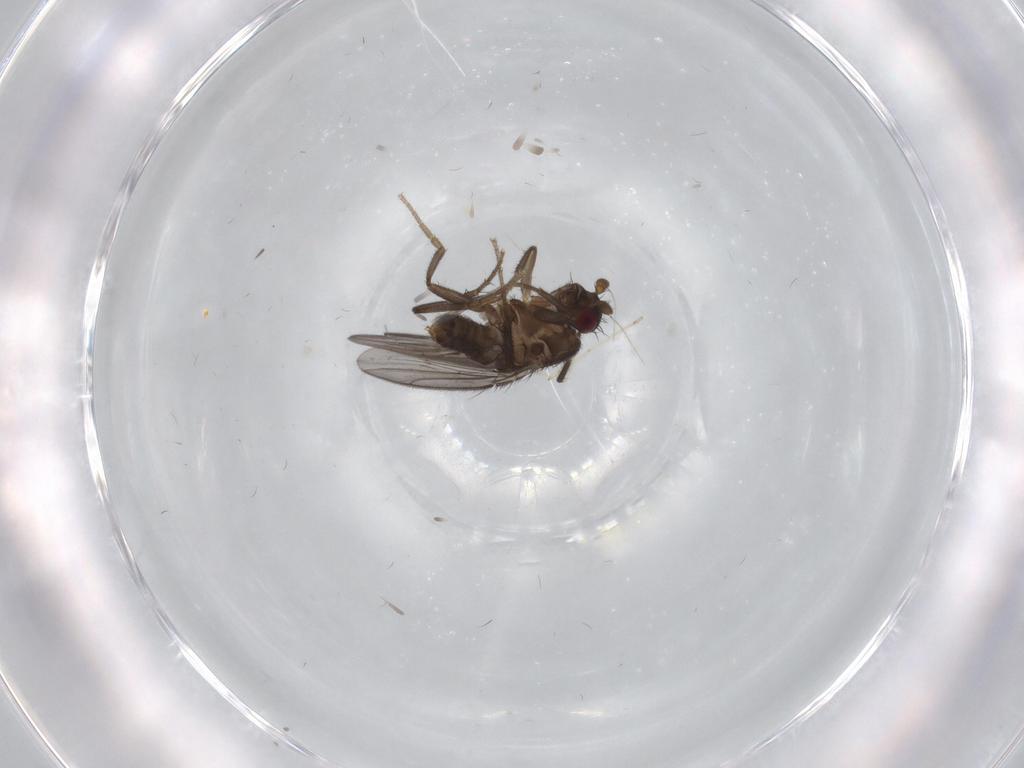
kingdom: Animalia
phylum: Arthropoda
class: Insecta
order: Diptera
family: Sciaridae
